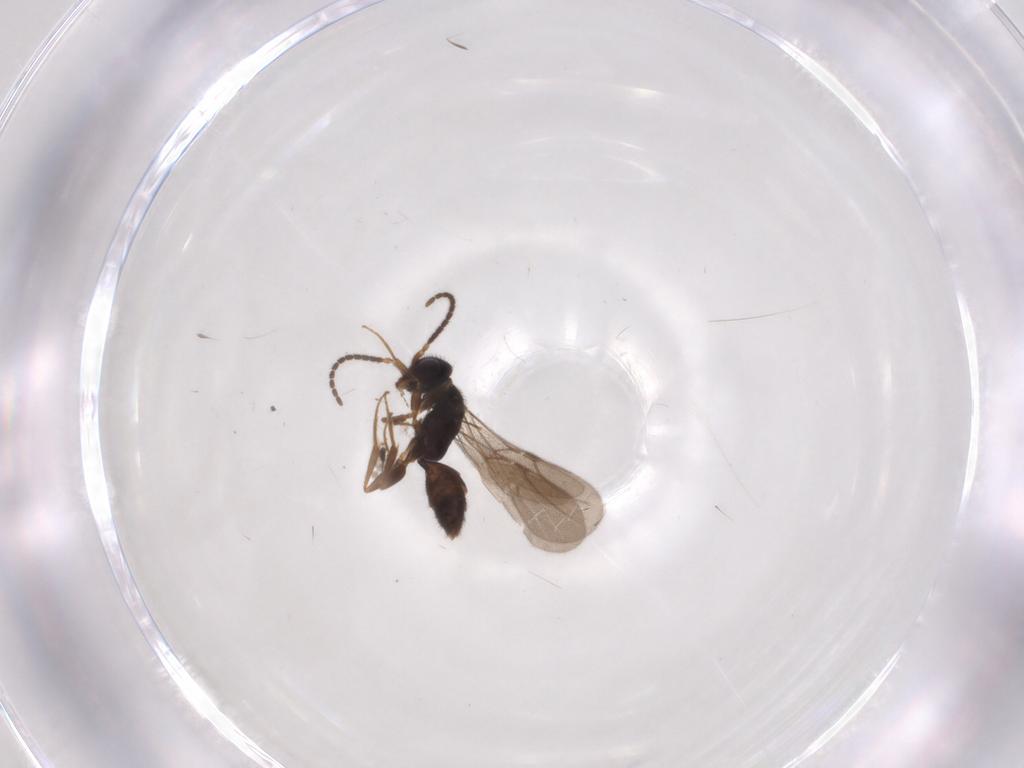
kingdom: Animalia
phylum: Arthropoda
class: Insecta
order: Hymenoptera
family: Bethylidae
